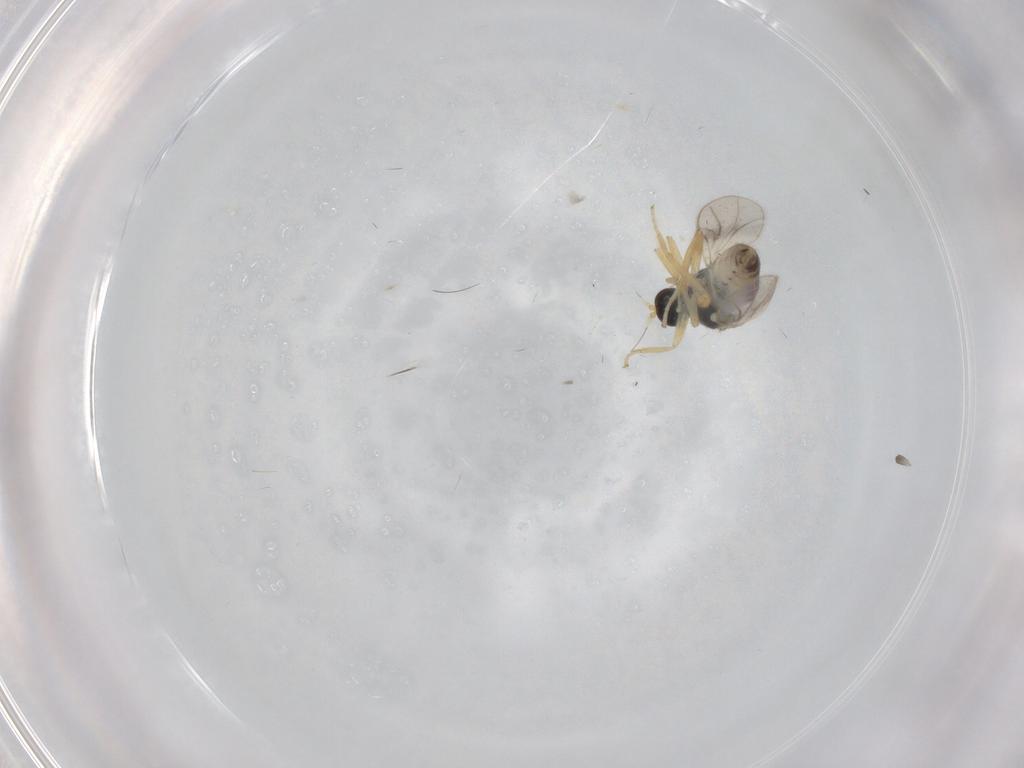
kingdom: Animalia
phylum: Arthropoda
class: Insecta
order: Diptera
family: Hybotidae
